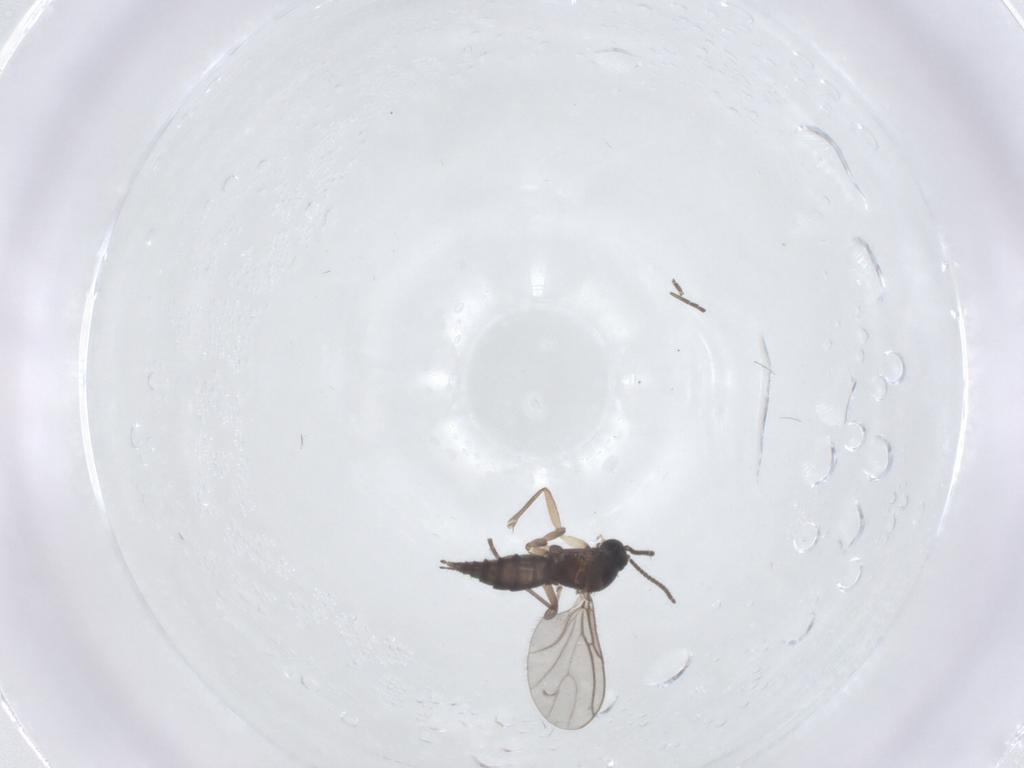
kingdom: Animalia
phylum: Arthropoda
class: Insecta
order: Diptera
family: Sciaridae
